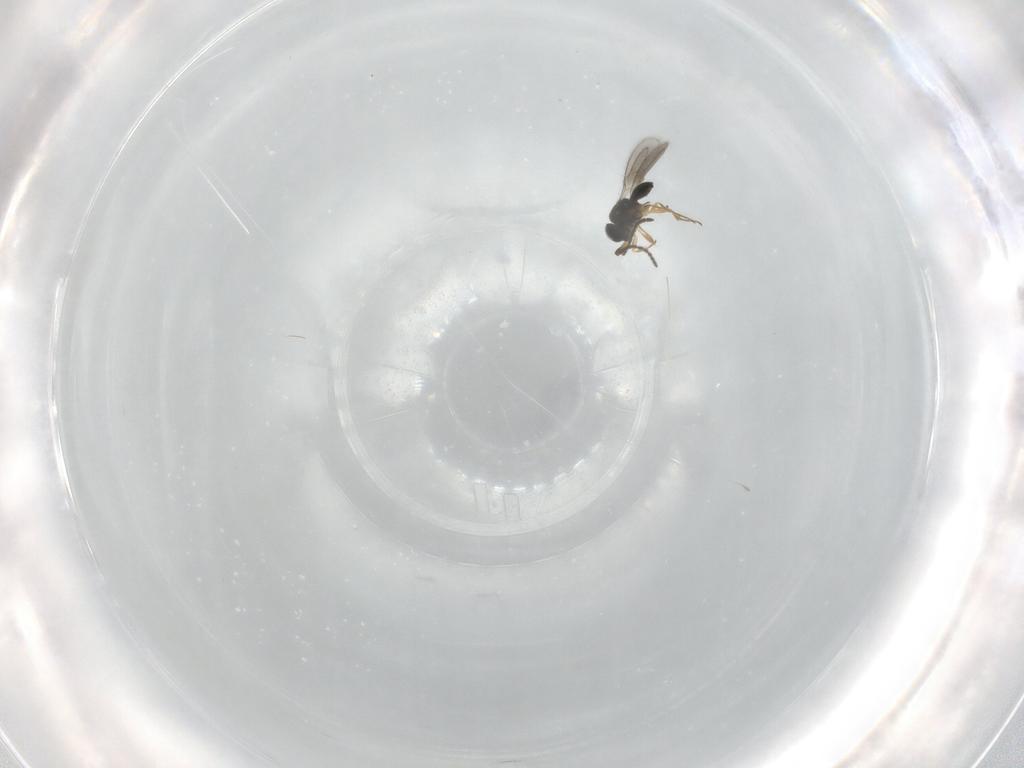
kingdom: Animalia
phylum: Arthropoda
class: Insecta
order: Hymenoptera
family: Scelionidae
